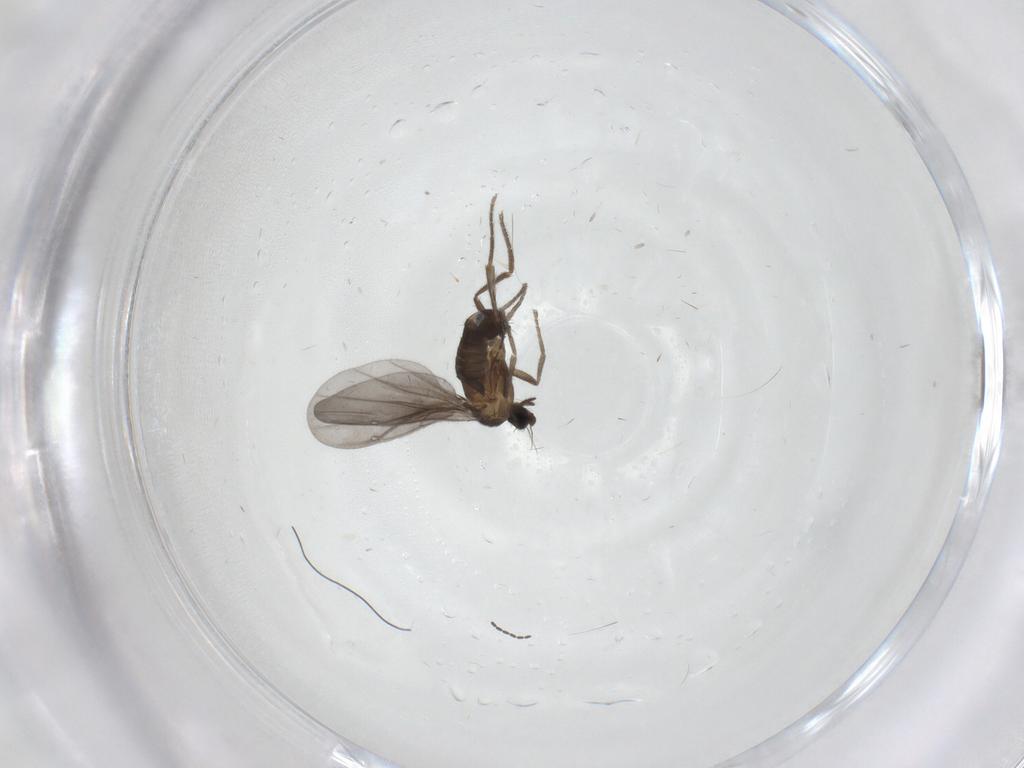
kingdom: Animalia
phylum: Arthropoda
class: Insecta
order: Diptera
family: Phoridae
